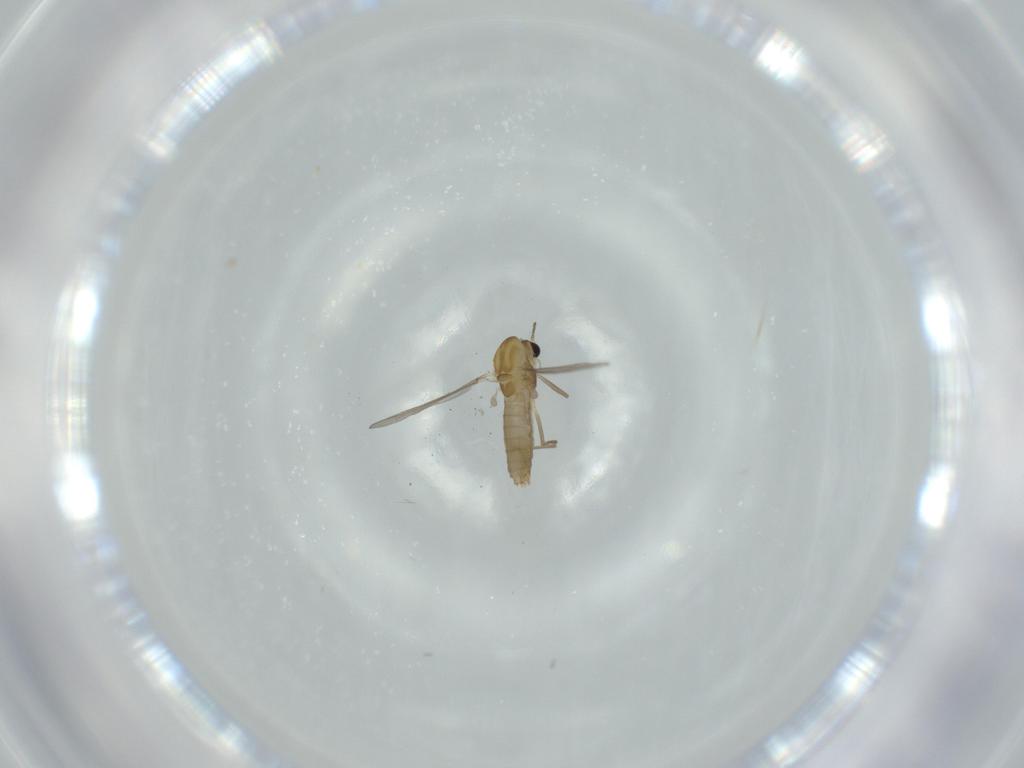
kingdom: Animalia
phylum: Arthropoda
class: Insecta
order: Diptera
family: Chironomidae
